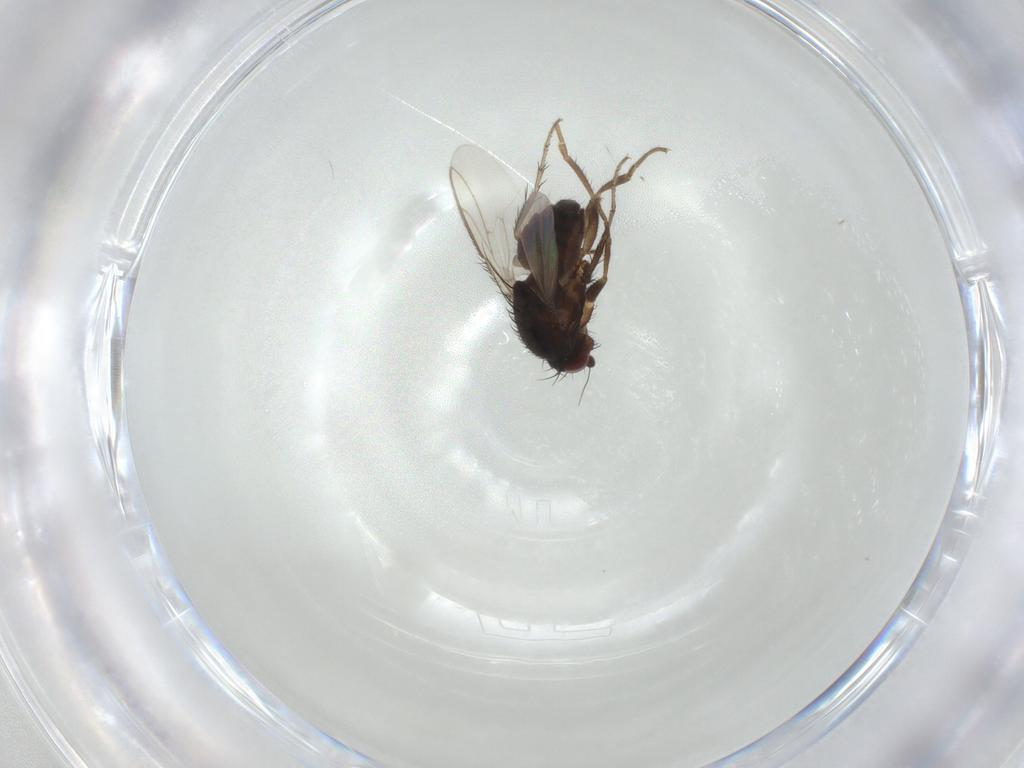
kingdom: Animalia
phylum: Arthropoda
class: Insecta
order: Diptera
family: Sphaeroceridae
